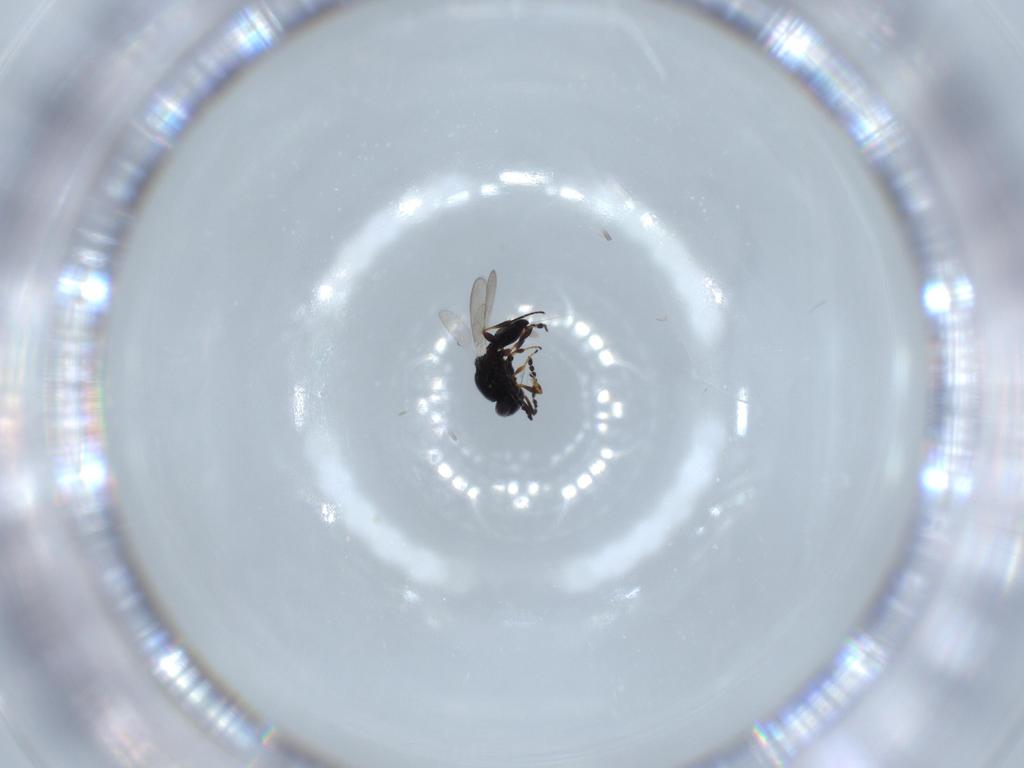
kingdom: Animalia
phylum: Arthropoda
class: Insecta
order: Hymenoptera
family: Platygastridae
